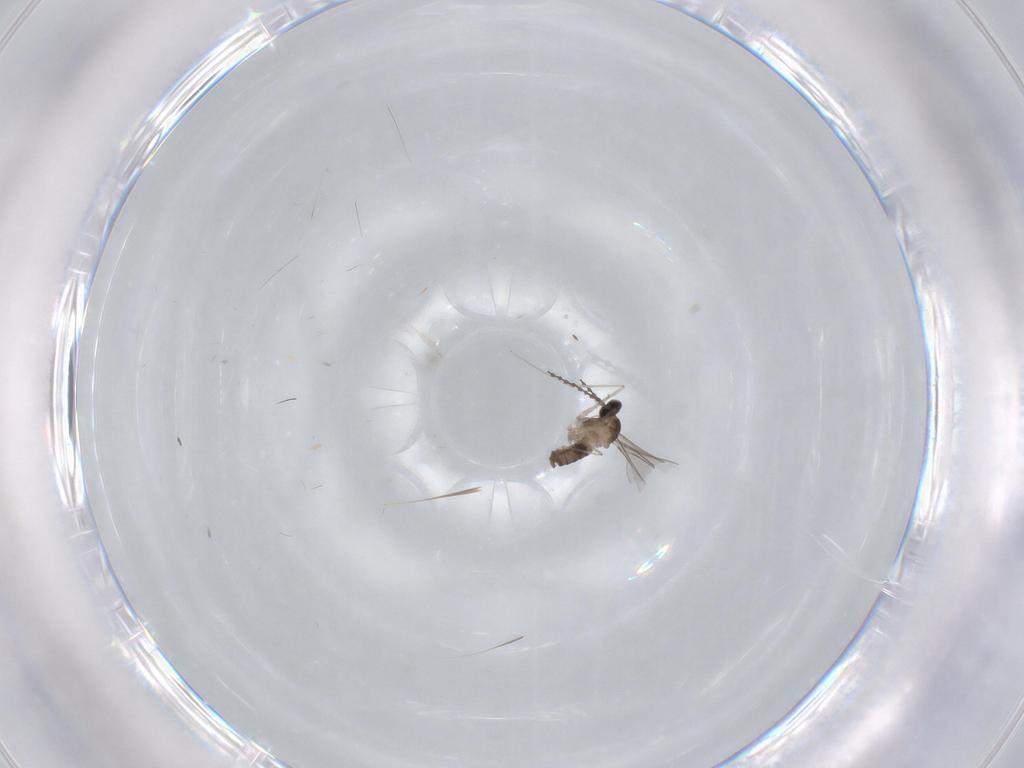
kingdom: Animalia
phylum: Arthropoda
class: Insecta
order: Diptera
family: Cecidomyiidae
